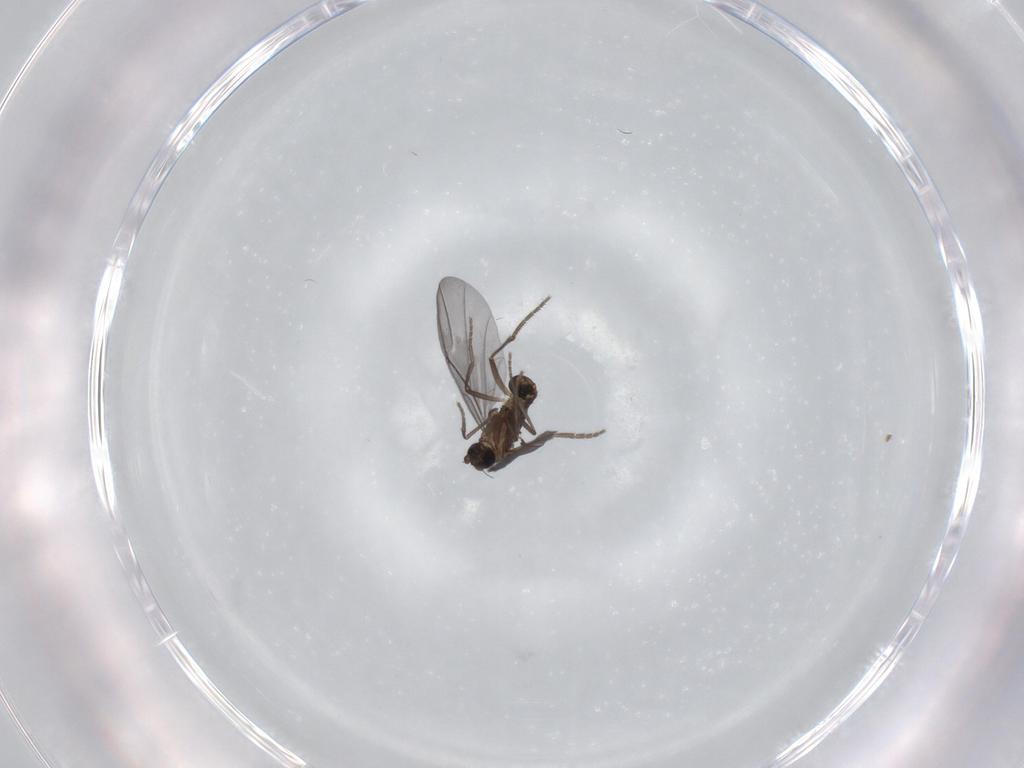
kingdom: Animalia
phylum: Arthropoda
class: Insecta
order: Diptera
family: Phoridae
